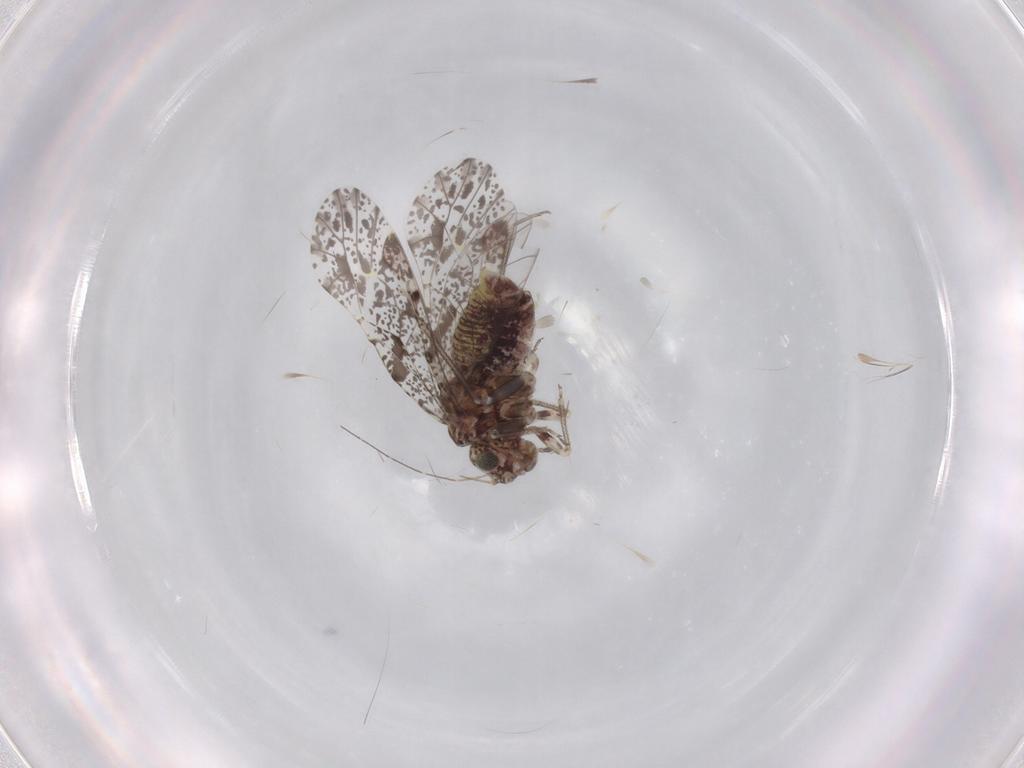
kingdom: Animalia
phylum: Arthropoda
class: Insecta
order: Psocodea
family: Psocidae
